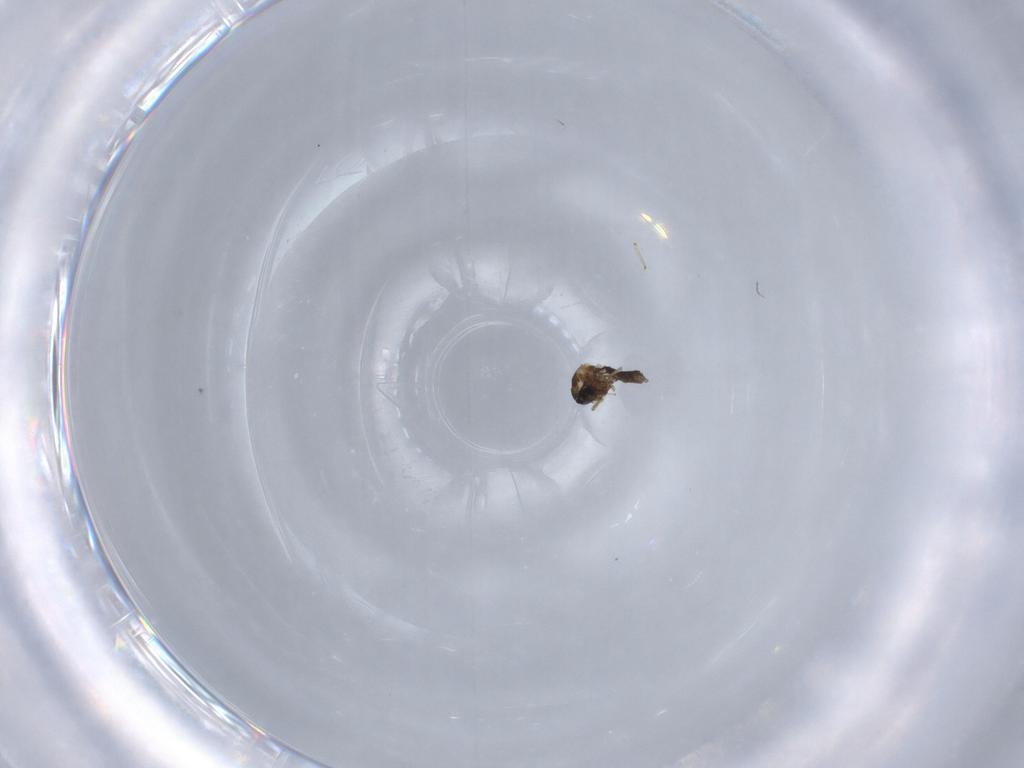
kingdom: Animalia
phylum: Arthropoda
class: Insecta
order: Diptera
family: Ceratopogonidae
